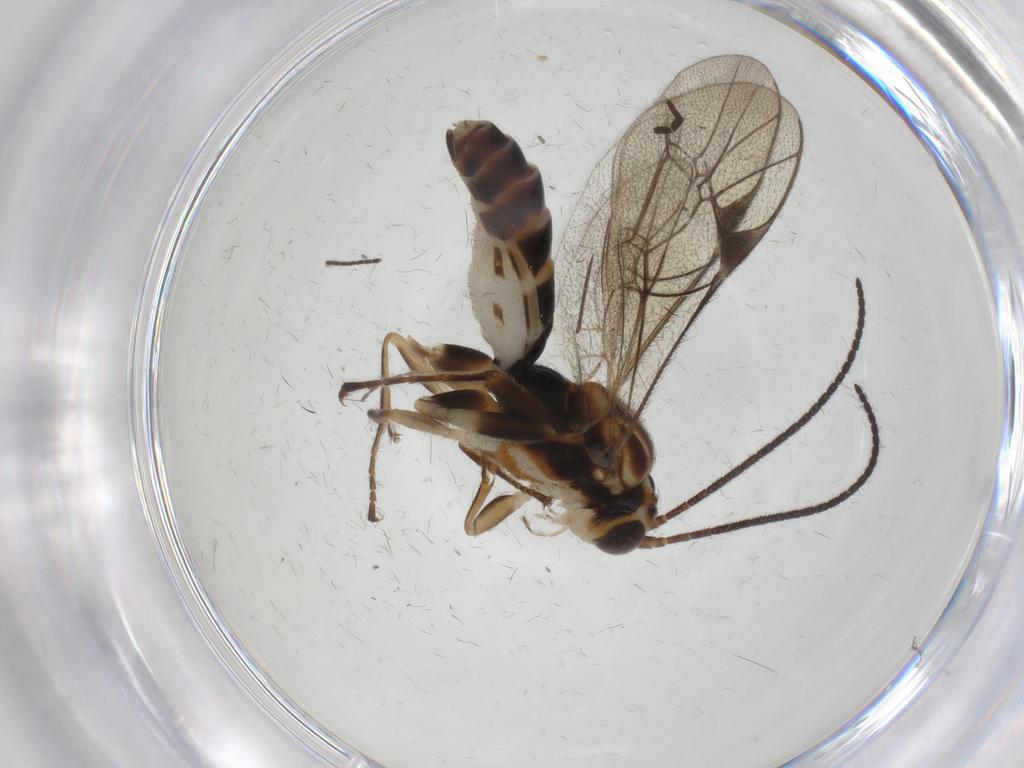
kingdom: Animalia
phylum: Arthropoda
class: Insecta
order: Hymenoptera
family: Ichneumonidae
